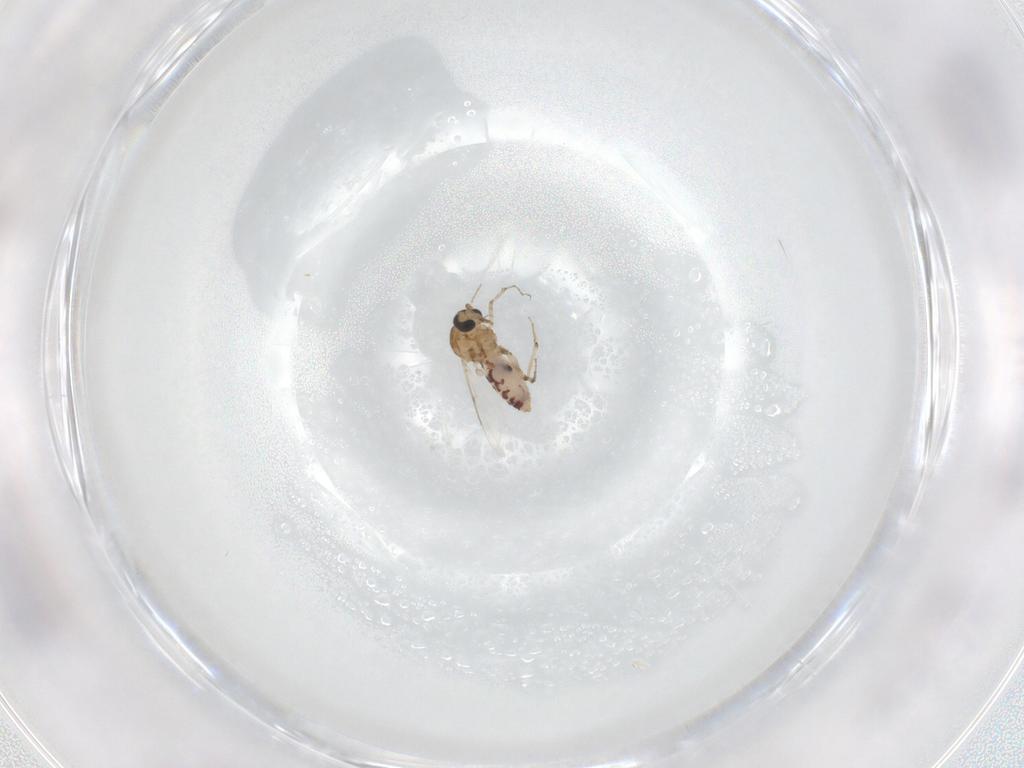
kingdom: Animalia
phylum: Arthropoda
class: Insecta
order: Diptera
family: Ceratopogonidae
